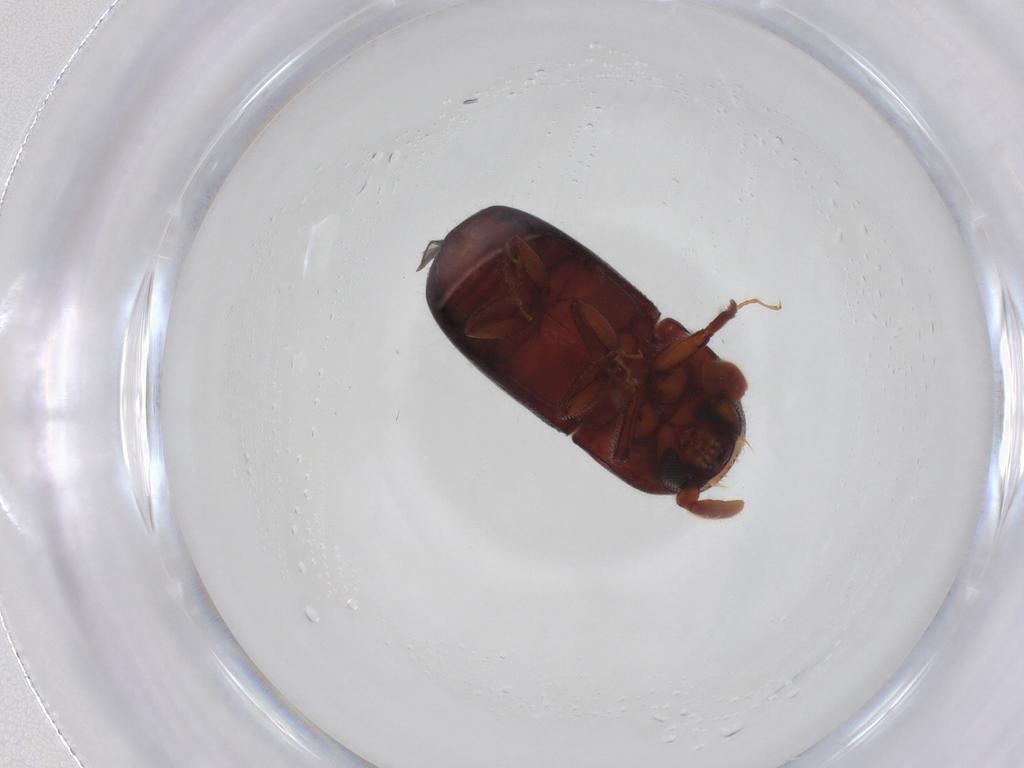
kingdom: Animalia
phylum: Arthropoda
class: Insecta
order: Coleoptera
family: Curculionidae
